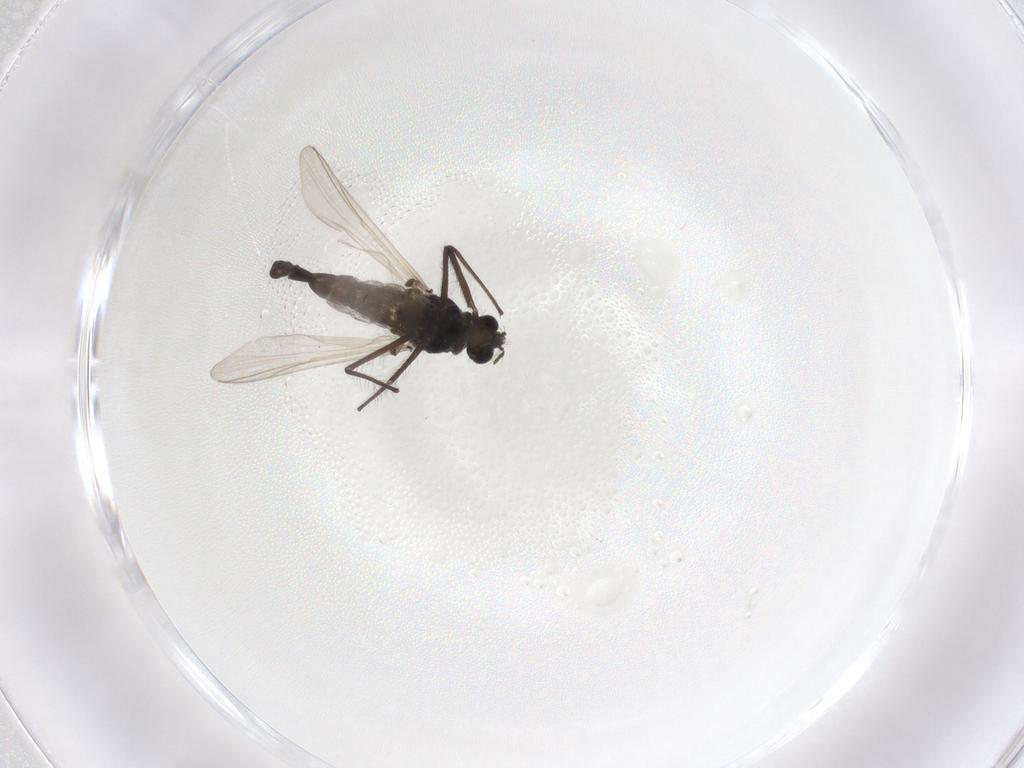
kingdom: Animalia
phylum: Arthropoda
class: Insecta
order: Diptera
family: Chironomidae
